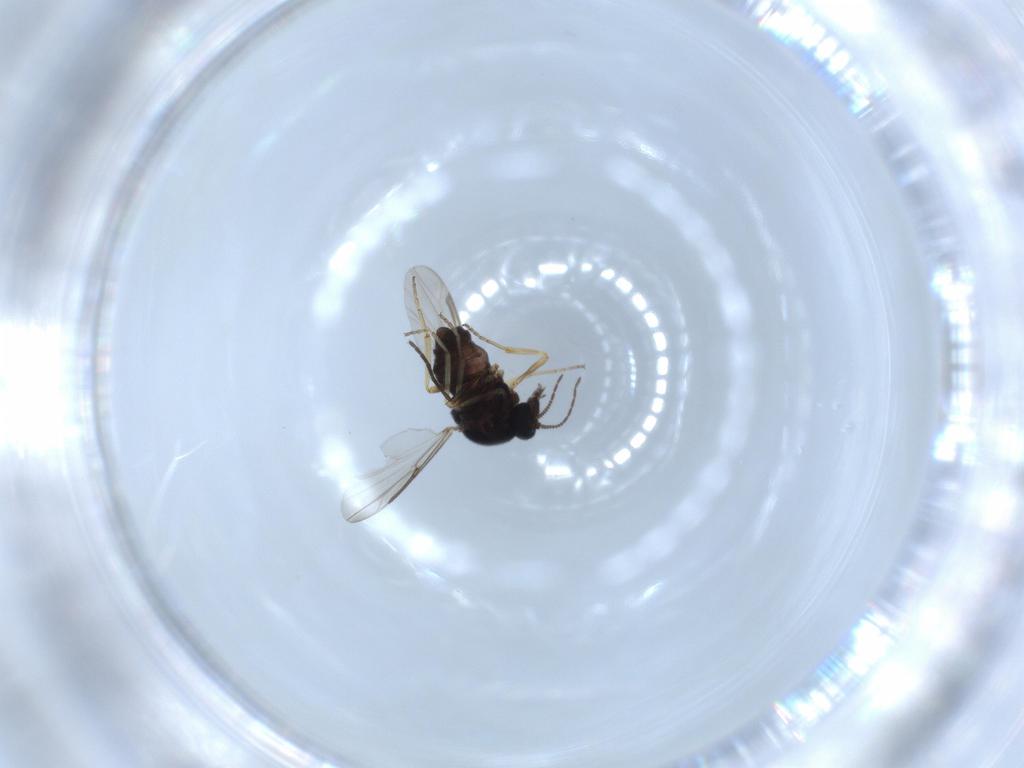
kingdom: Animalia
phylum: Arthropoda
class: Insecta
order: Diptera
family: Ceratopogonidae
